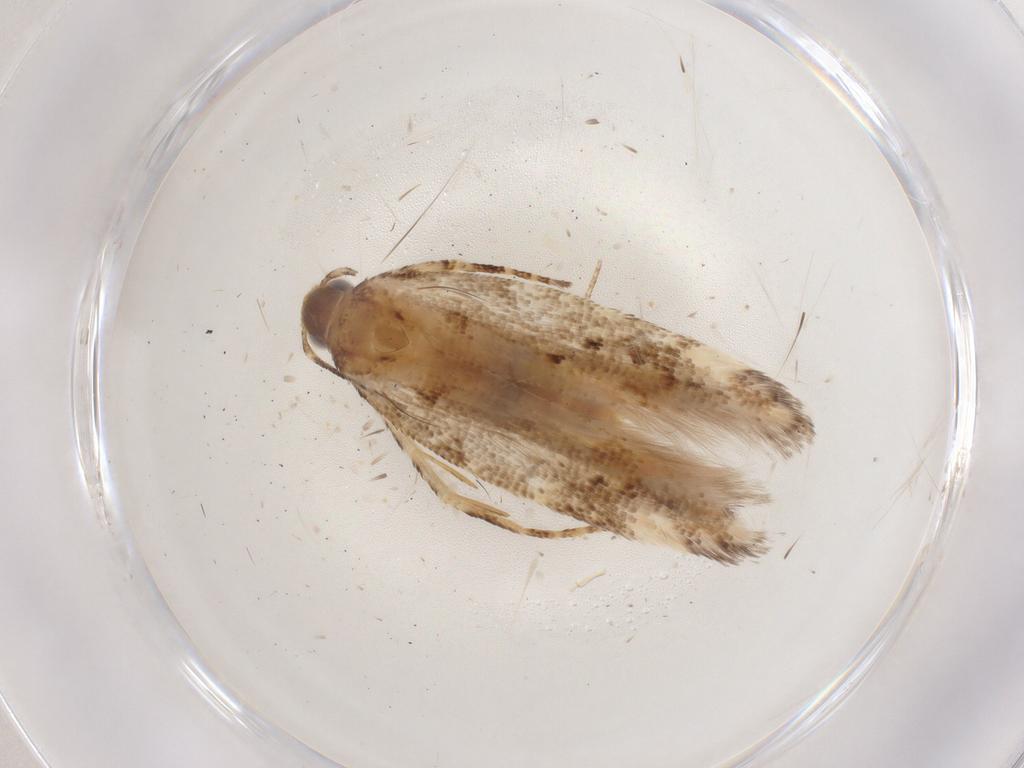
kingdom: Animalia
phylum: Arthropoda
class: Insecta
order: Lepidoptera
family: Gelechiidae
